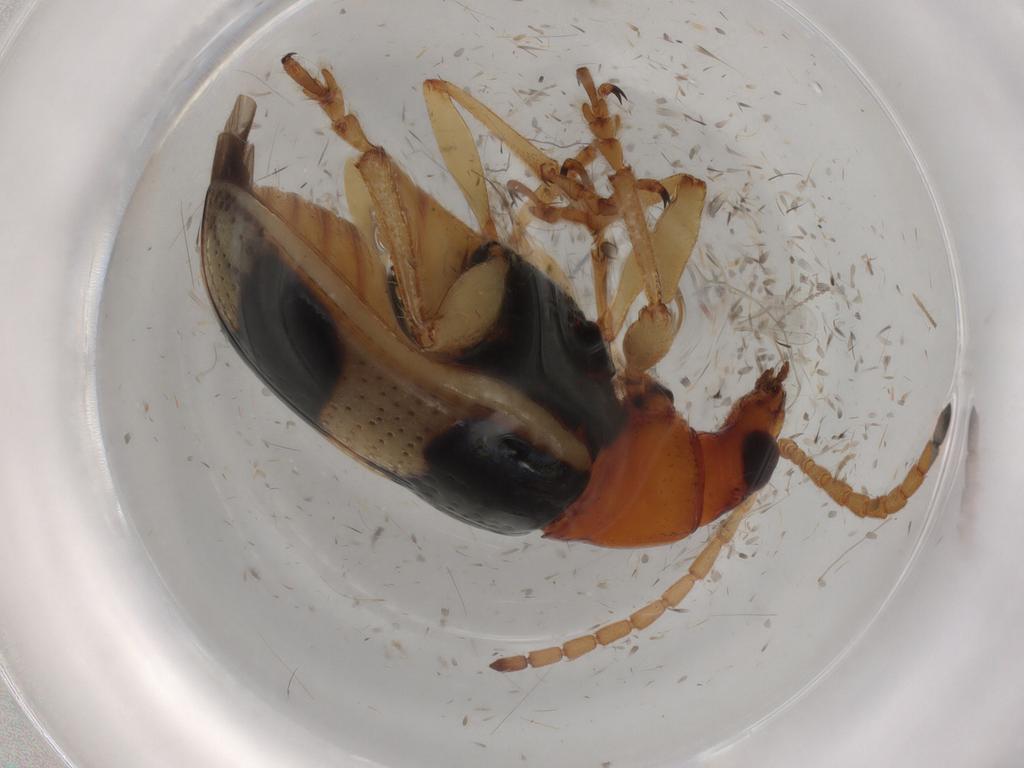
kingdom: Animalia
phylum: Arthropoda
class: Insecta
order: Coleoptera
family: Chrysomelidae
